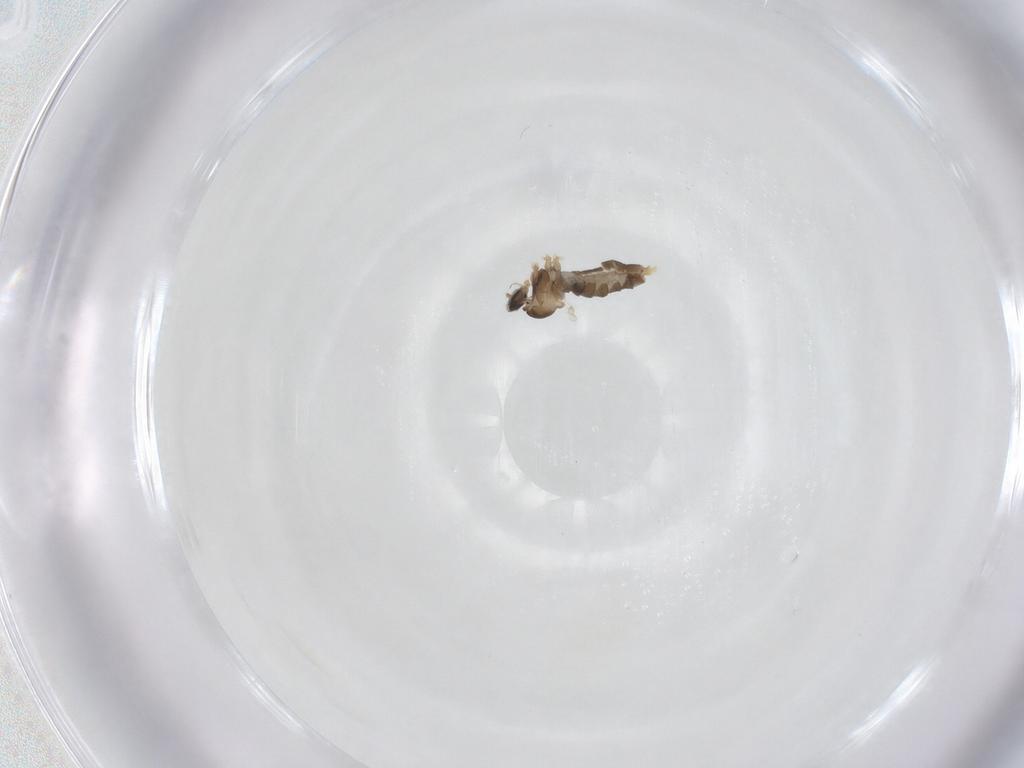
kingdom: Animalia
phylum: Arthropoda
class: Insecta
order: Diptera
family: Cecidomyiidae
